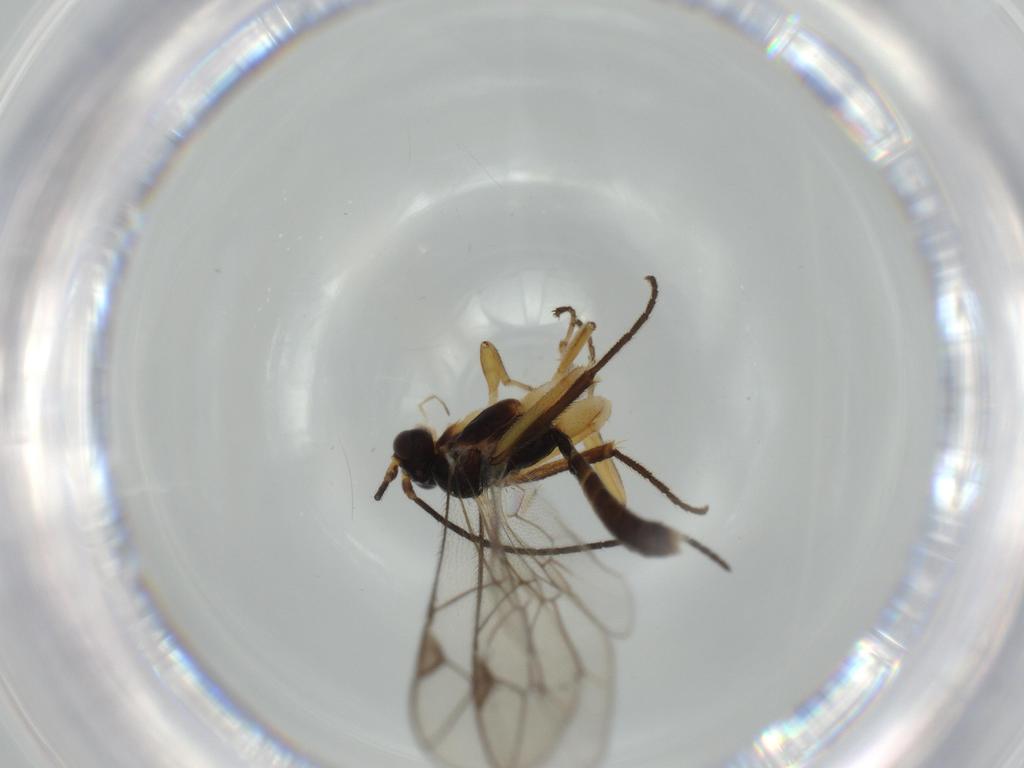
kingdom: Animalia
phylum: Arthropoda
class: Insecta
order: Hymenoptera
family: Ichneumonidae
